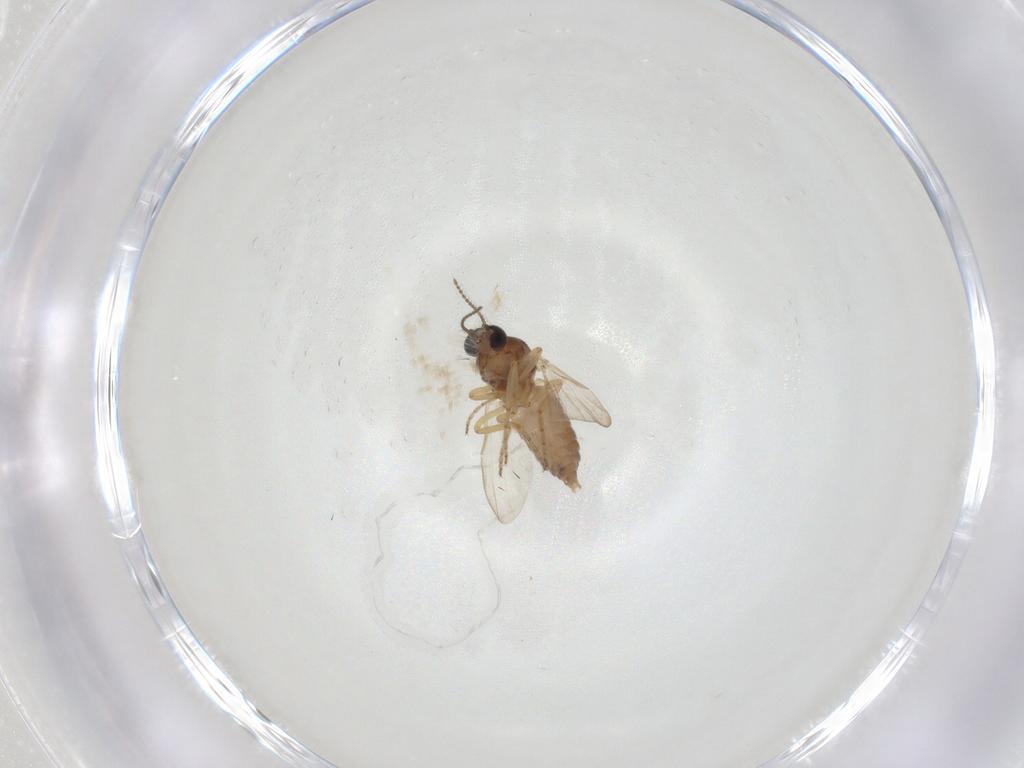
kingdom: Animalia
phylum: Arthropoda
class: Insecta
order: Diptera
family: Ceratopogonidae
